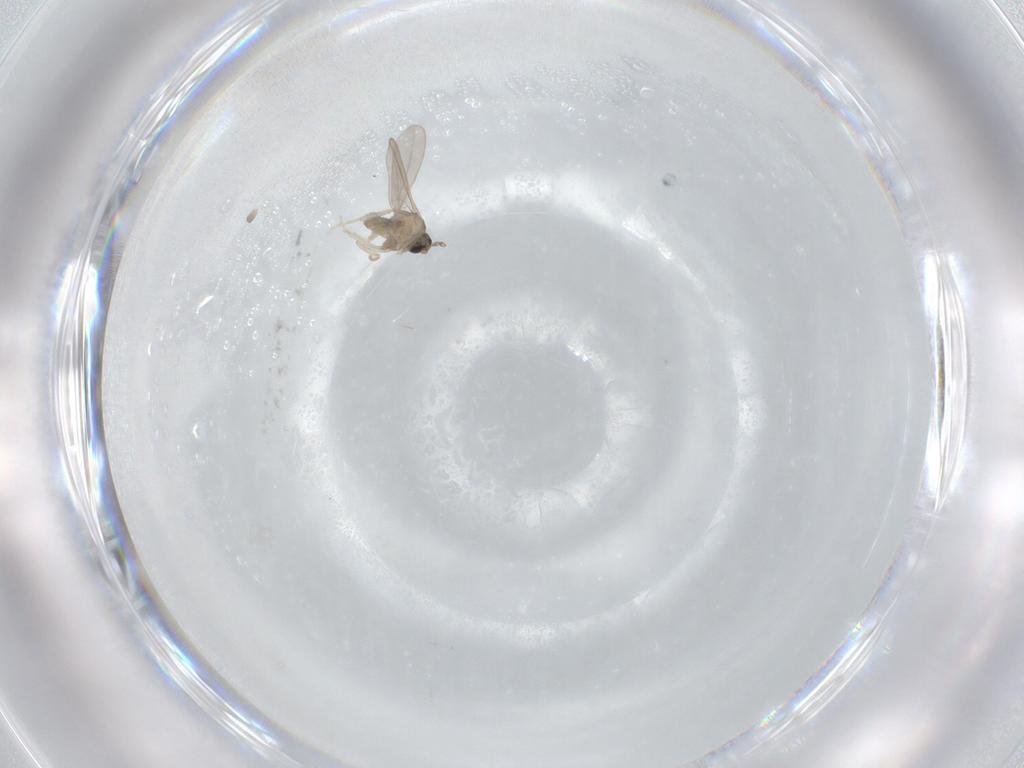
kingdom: Animalia
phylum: Arthropoda
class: Insecta
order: Diptera
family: Cecidomyiidae
